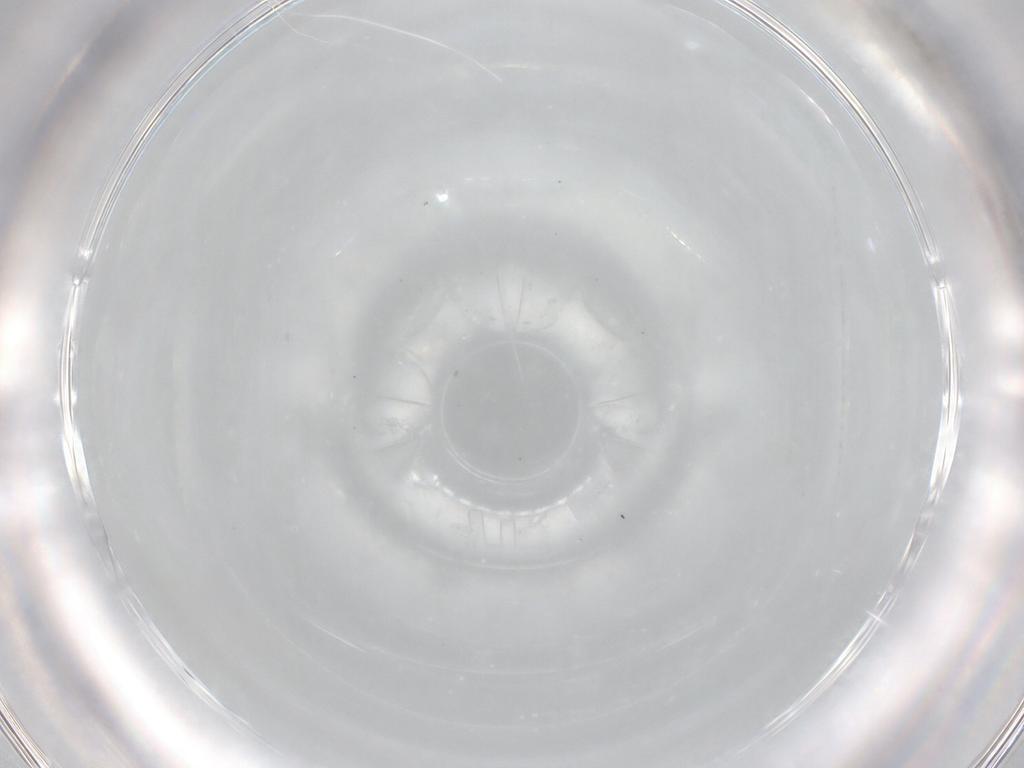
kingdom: Animalia
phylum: Arthropoda
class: Insecta
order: Diptera
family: Phoridae
